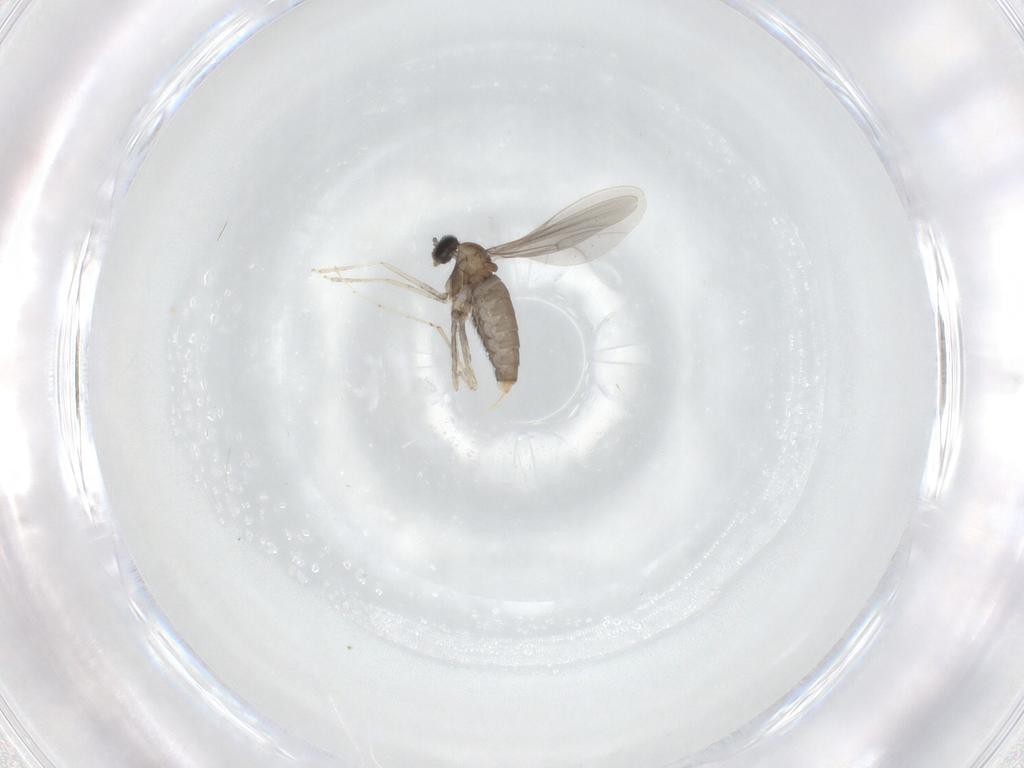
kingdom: Animalia
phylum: Arthropoda
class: Insecta
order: Diptera
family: Cecidomyiidae
